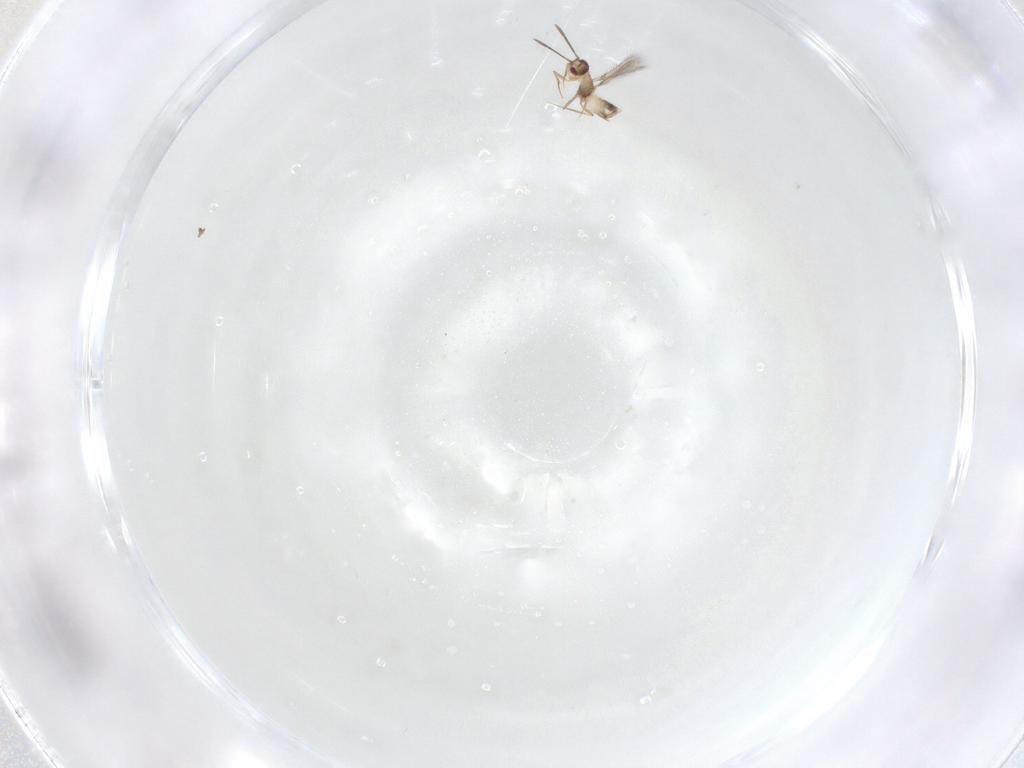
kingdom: Animalia
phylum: Arthropoda
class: Insecta
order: Hymenoptera
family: Mymaridae
